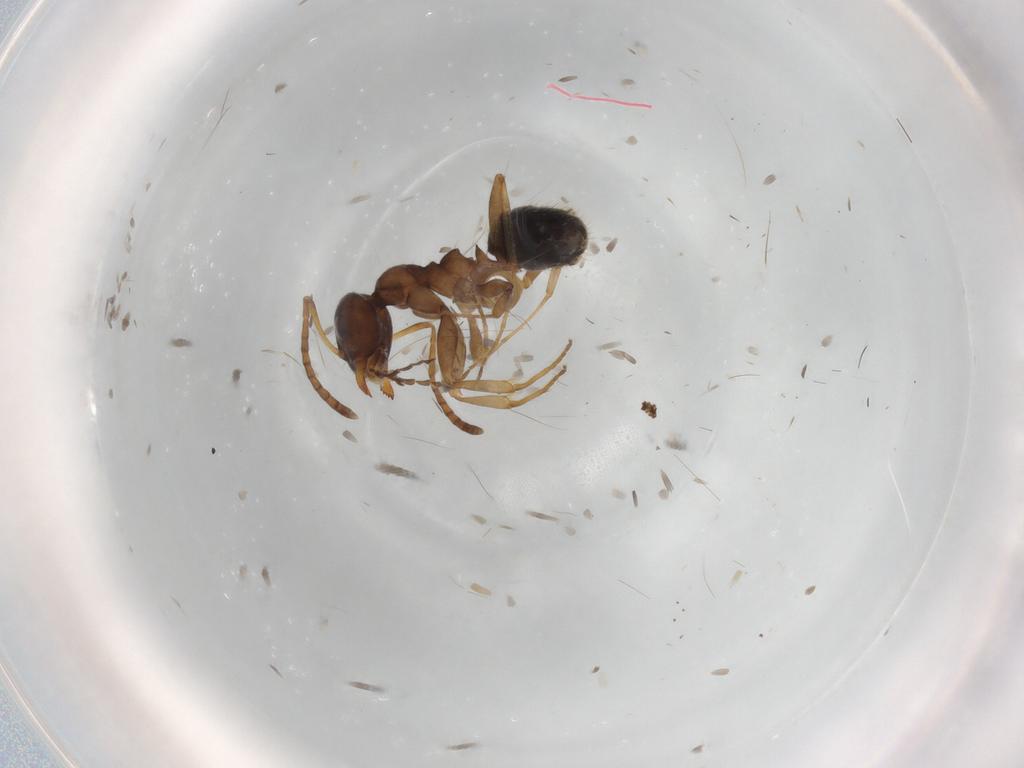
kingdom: Animalia
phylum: Arthropoda
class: Insecta
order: Hymenoptera
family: Formicidae
